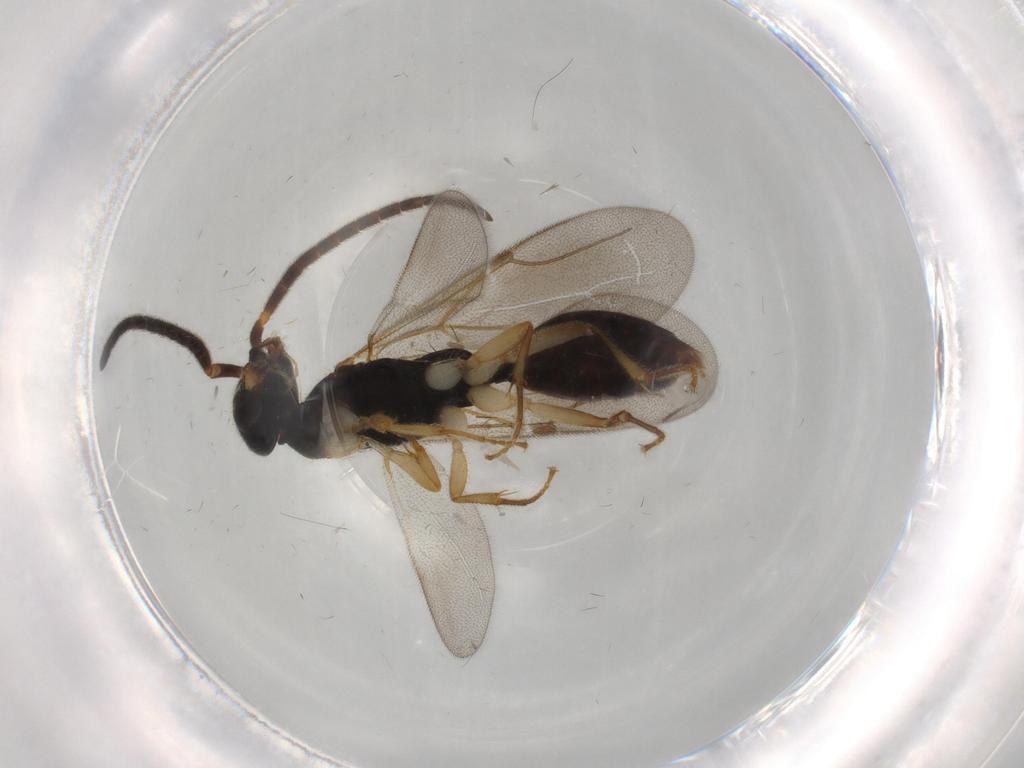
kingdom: Animalia
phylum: Arthropoda
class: Insecta
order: Hymenoptera
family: Bethylidae
